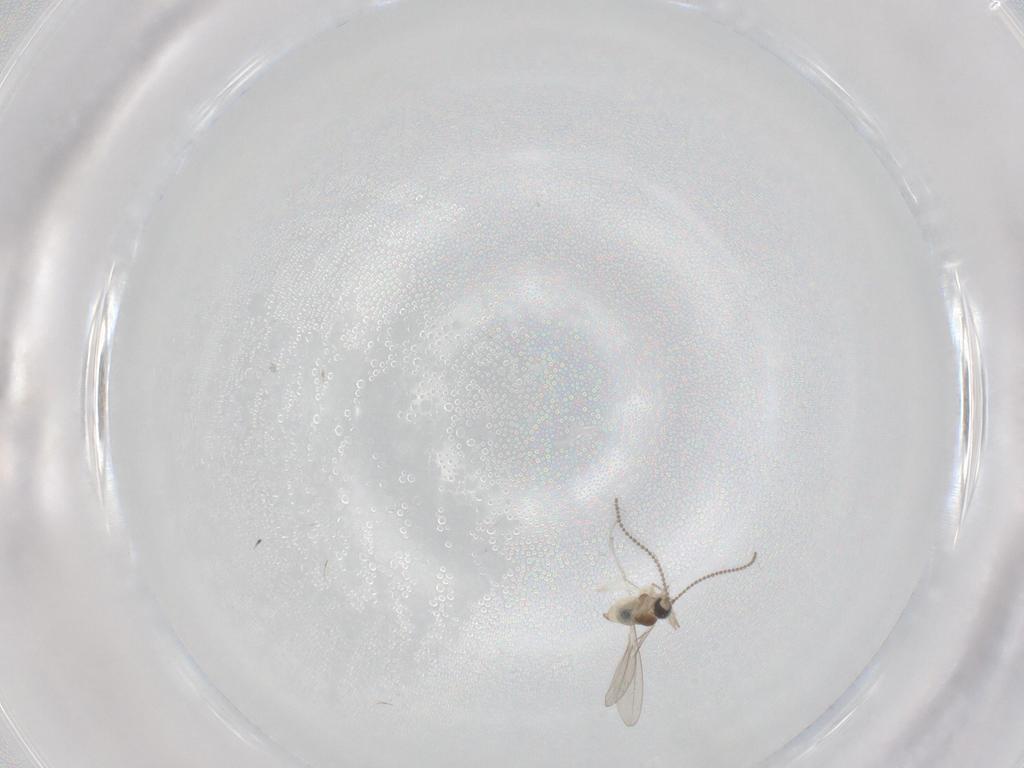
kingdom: Animalia
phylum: Arthropoda
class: Insecta
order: Diptera
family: Cecidomyiidae
